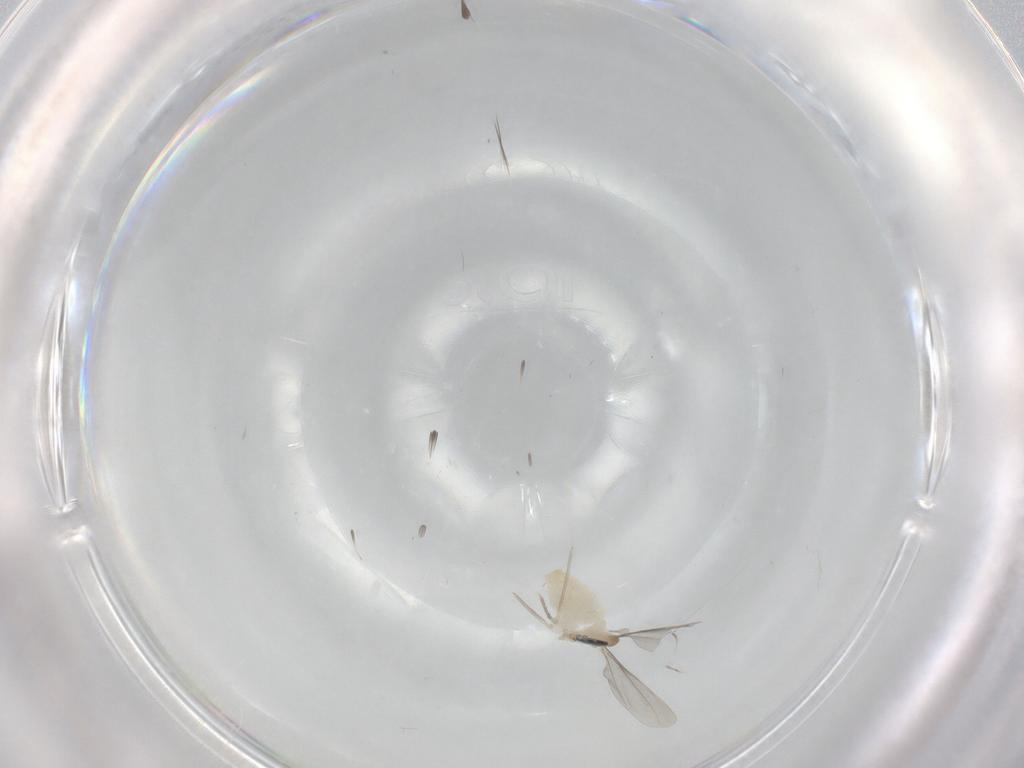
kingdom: Animalia
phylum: Arthropoda
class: Insecta
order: Diptera
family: Cecidomyiidae
